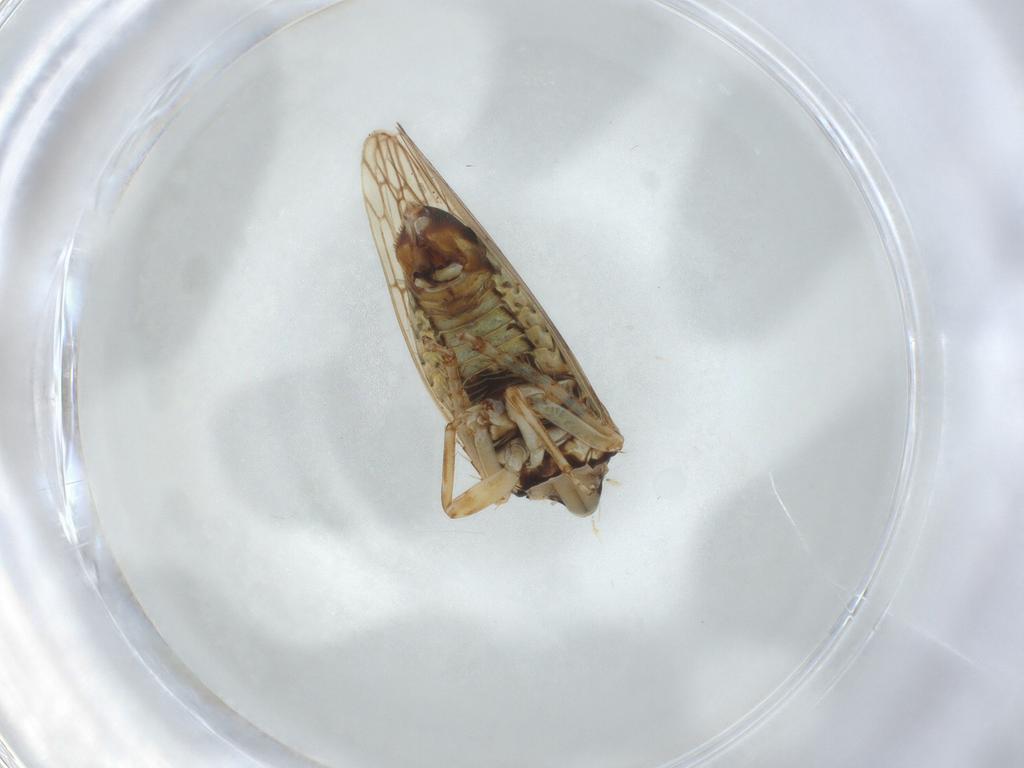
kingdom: Animalia
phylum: Arthropoda
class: Insecta
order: Hemiptera
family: Cicadellidae
